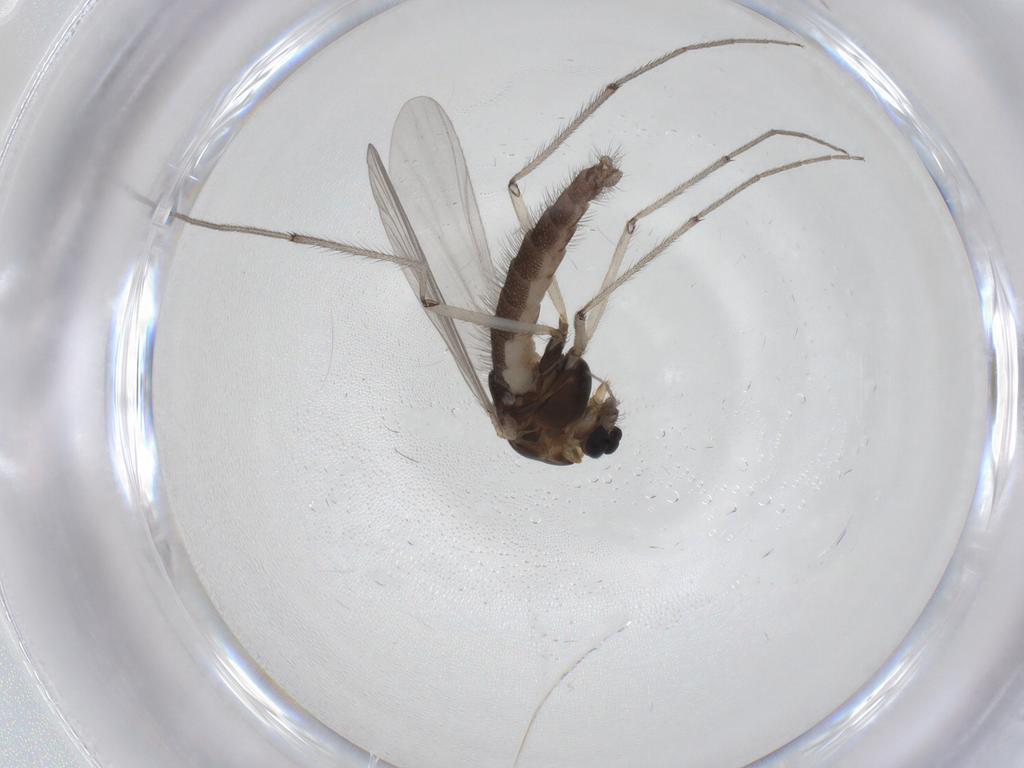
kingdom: Animalia
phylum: Arthropoda
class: Insecta
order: Diptera
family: Chironomidae
